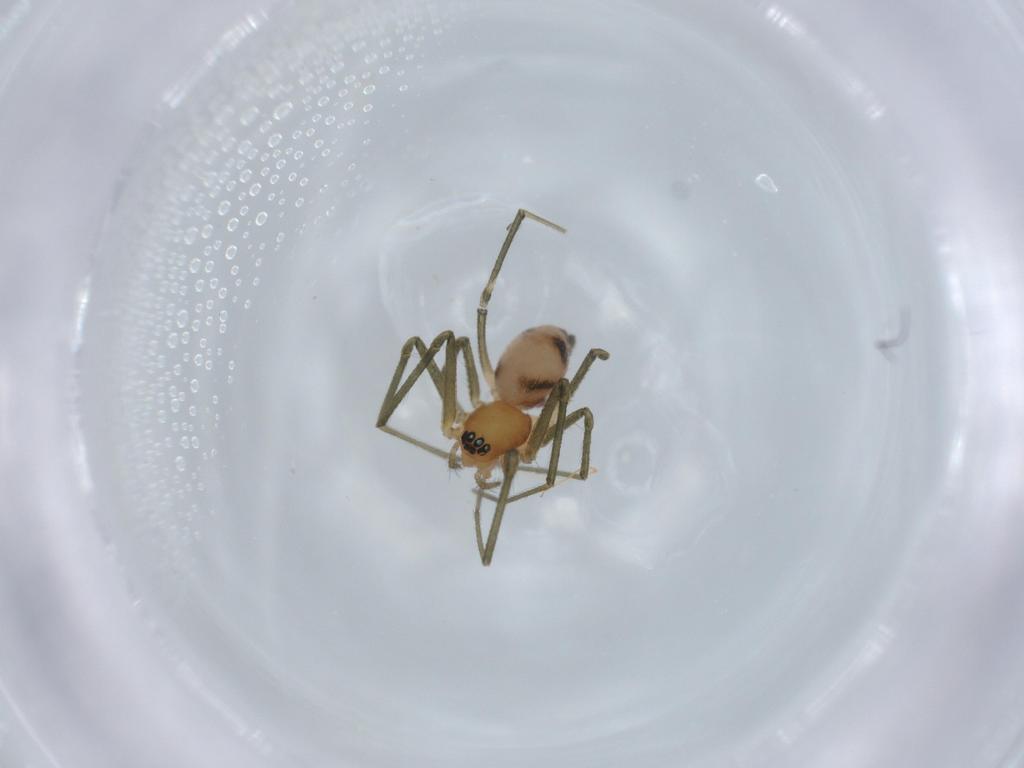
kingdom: Animalia
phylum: Arthropoda
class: Arachnida
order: Araneae
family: Linyphiidae
